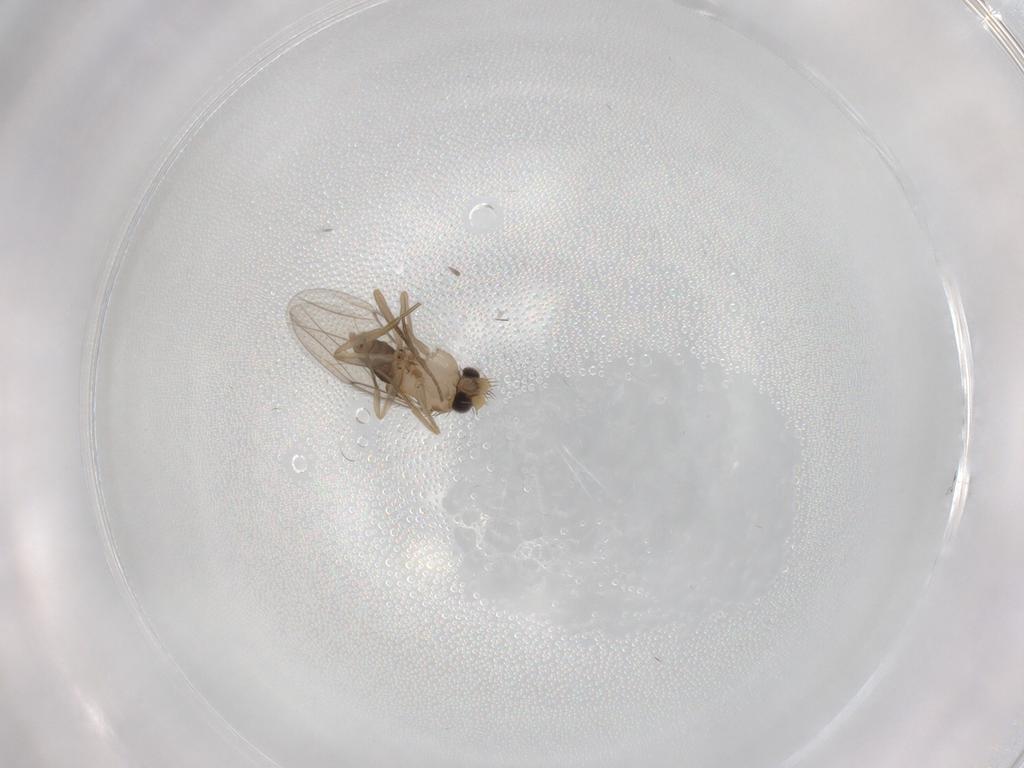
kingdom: Animalia
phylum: Arthropoda
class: Insecta
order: Diptera
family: Phoridae
